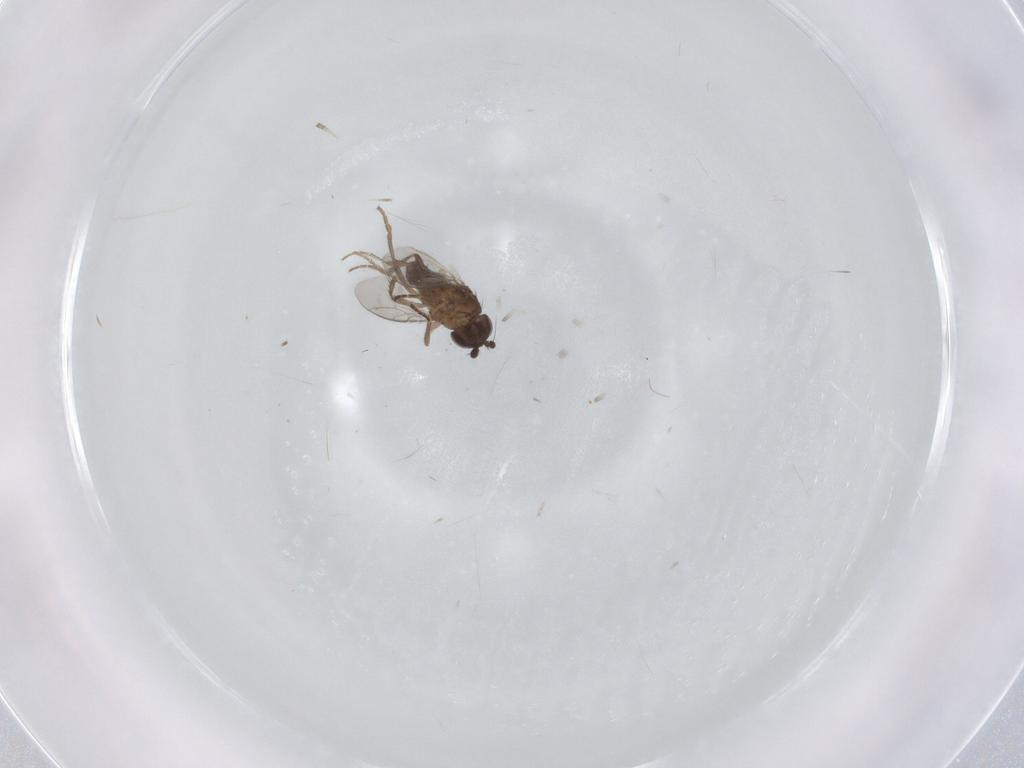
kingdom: Animalia
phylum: Arthropoda
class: Insecta
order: Diptera
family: Sphaeroceridae
